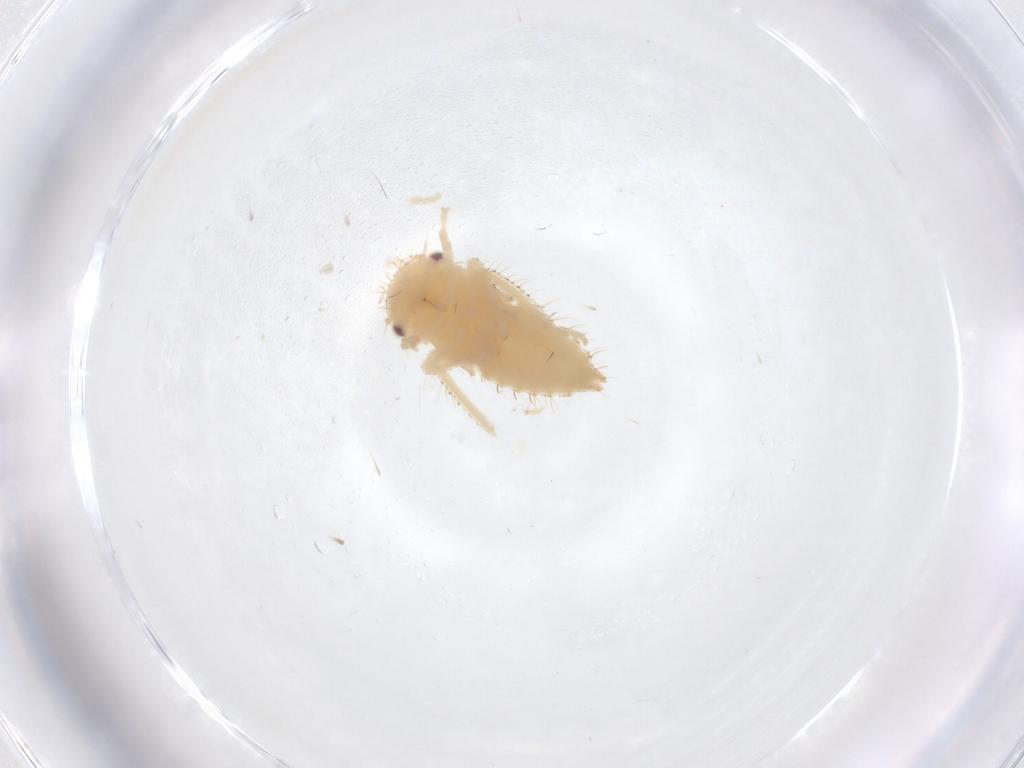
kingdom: Animalia
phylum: Arthropoda
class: Insecta
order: Hemiptera
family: Cicadellidae
